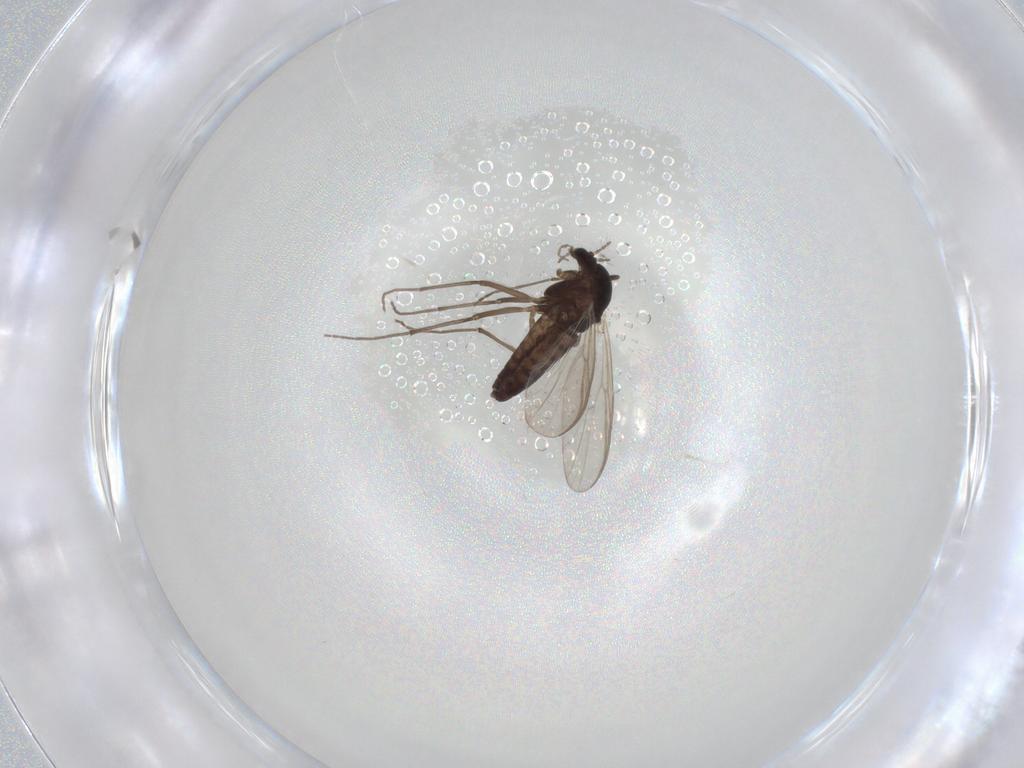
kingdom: Animalia
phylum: Arthropoda
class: Insecta
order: Diptera
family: Chironomidae
